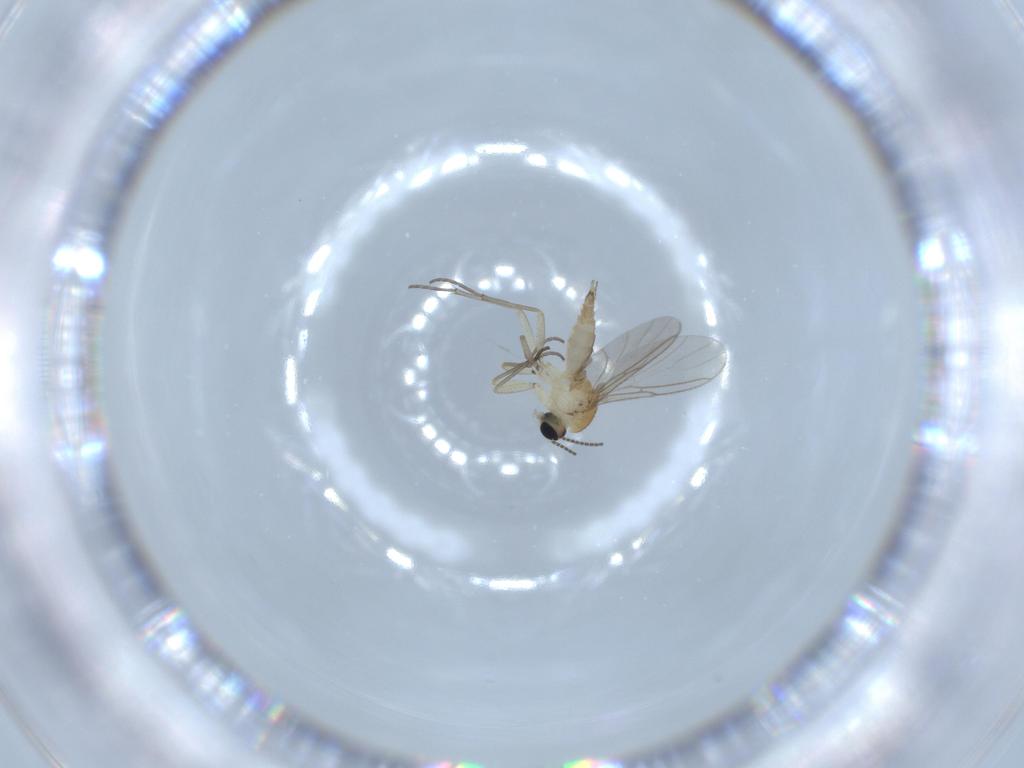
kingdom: Animalia
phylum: Arthropoda
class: Insecta
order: Diptera
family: Sciaridae
